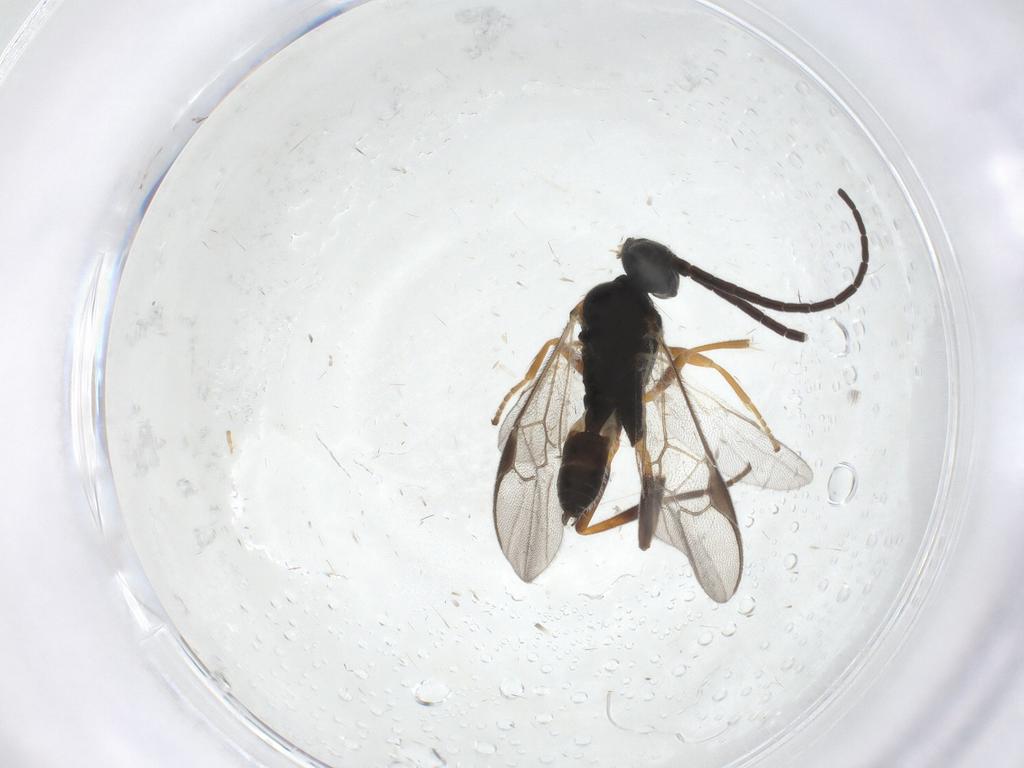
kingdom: Animalia
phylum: Arthropoda
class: Insecta
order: Hymenoptera
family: Braconidae
